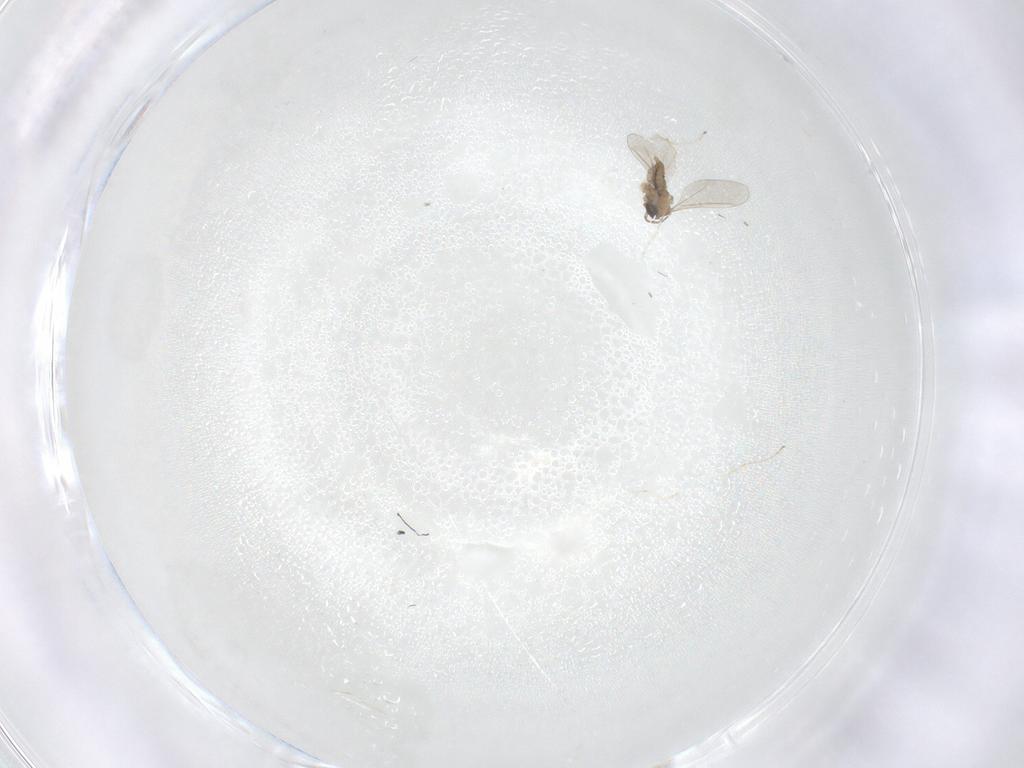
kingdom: Animalia
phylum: Arthropoda
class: Insecta
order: Diptera
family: Cecidomyiidae
